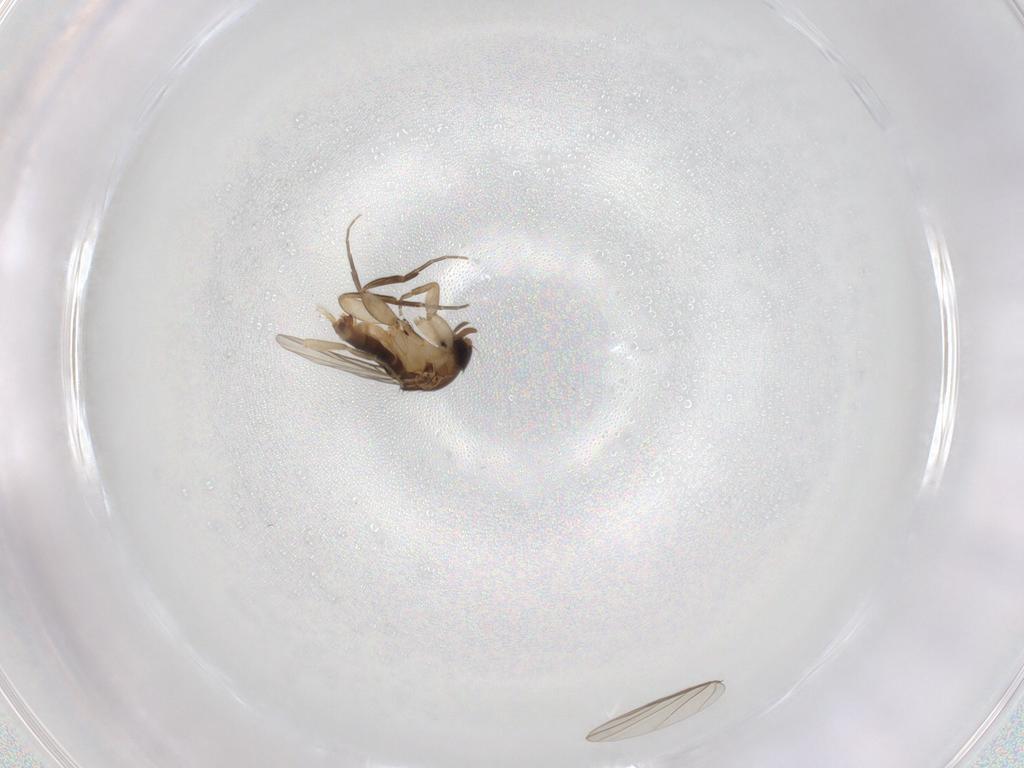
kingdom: Animalia
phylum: Arthropoda
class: Insecta
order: Diptera
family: Phoridae
